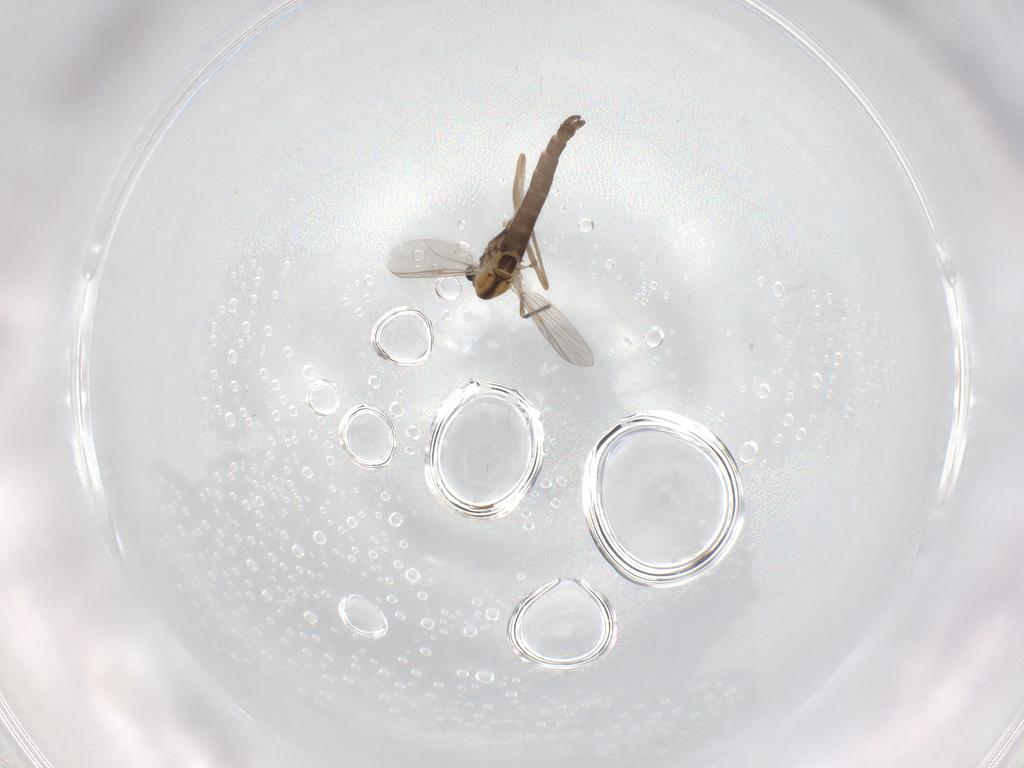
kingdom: Animalia
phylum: Arthropoda
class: Insecta
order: Diptera
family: Chironomidae
